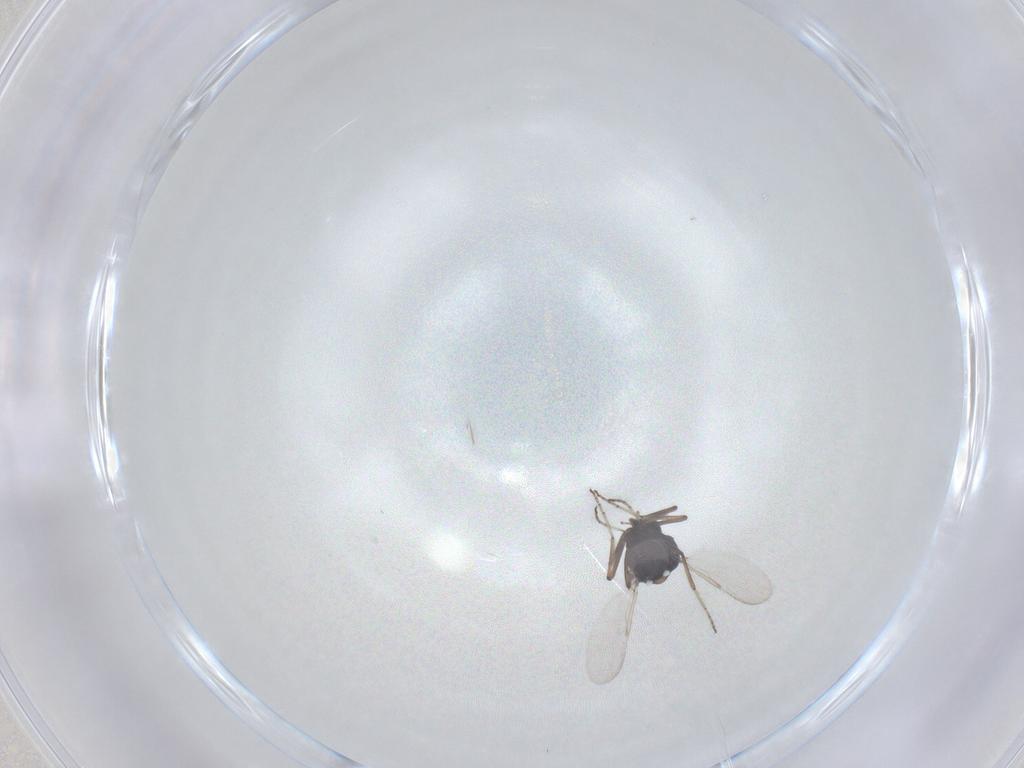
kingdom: Animalia
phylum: Arthropoda
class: Insecta
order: Diptera
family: Ceratopogonidae
